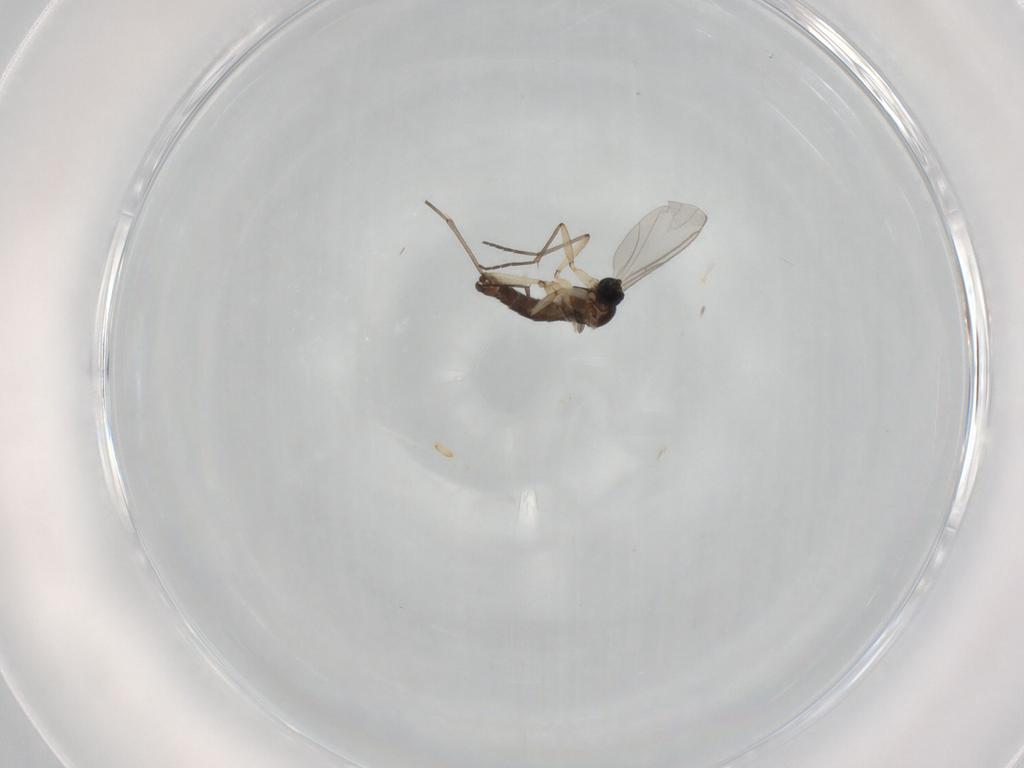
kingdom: Animalia
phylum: Arthropoda
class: Insecta
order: Diptera
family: Sciaridae
